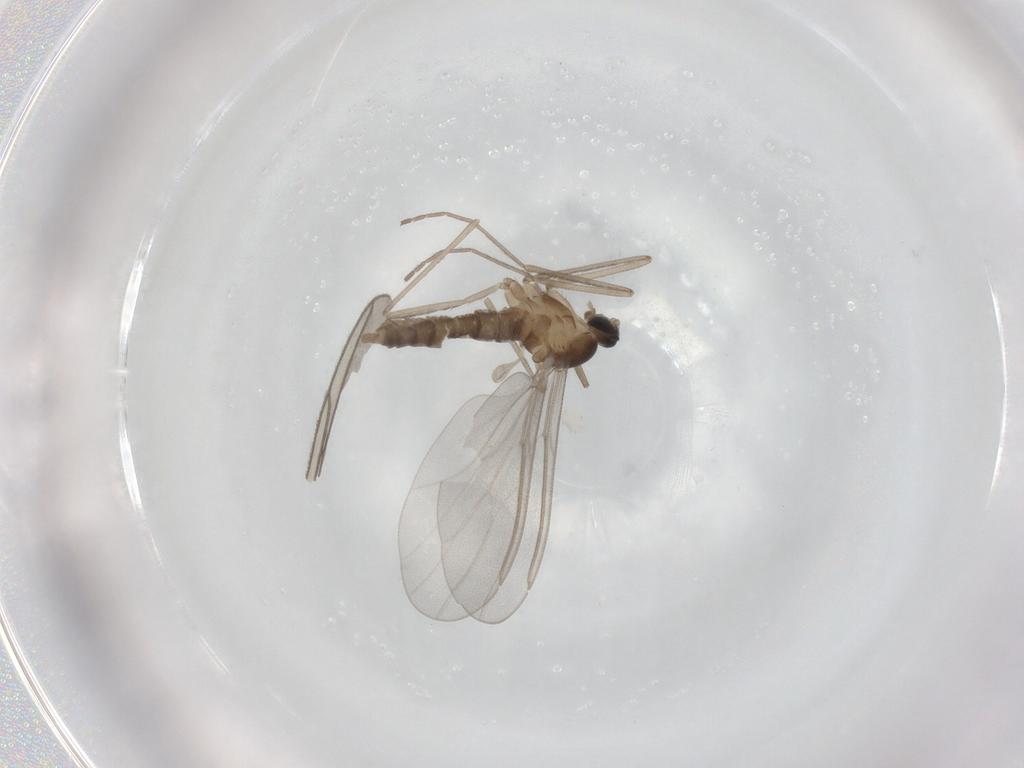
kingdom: Animalia
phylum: Arthropoda
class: Insecta
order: Diptera
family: Cecidomyiidae
